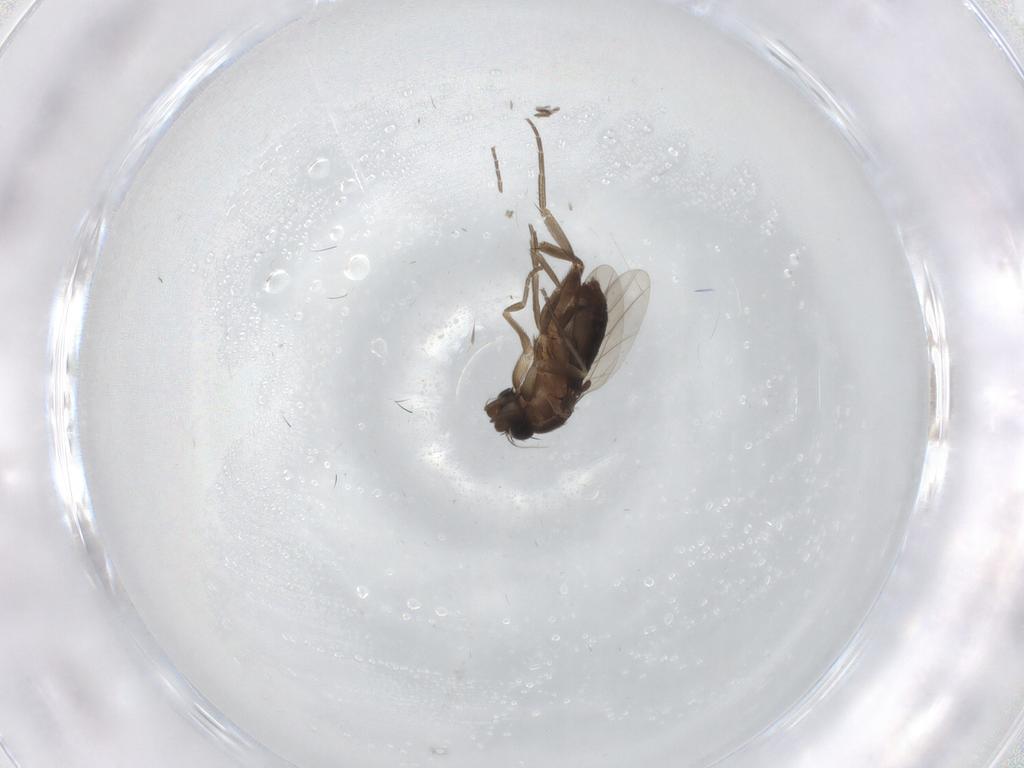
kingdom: Animalia
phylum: Arthropoda
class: Insecta
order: Diptera
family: Phoridae
